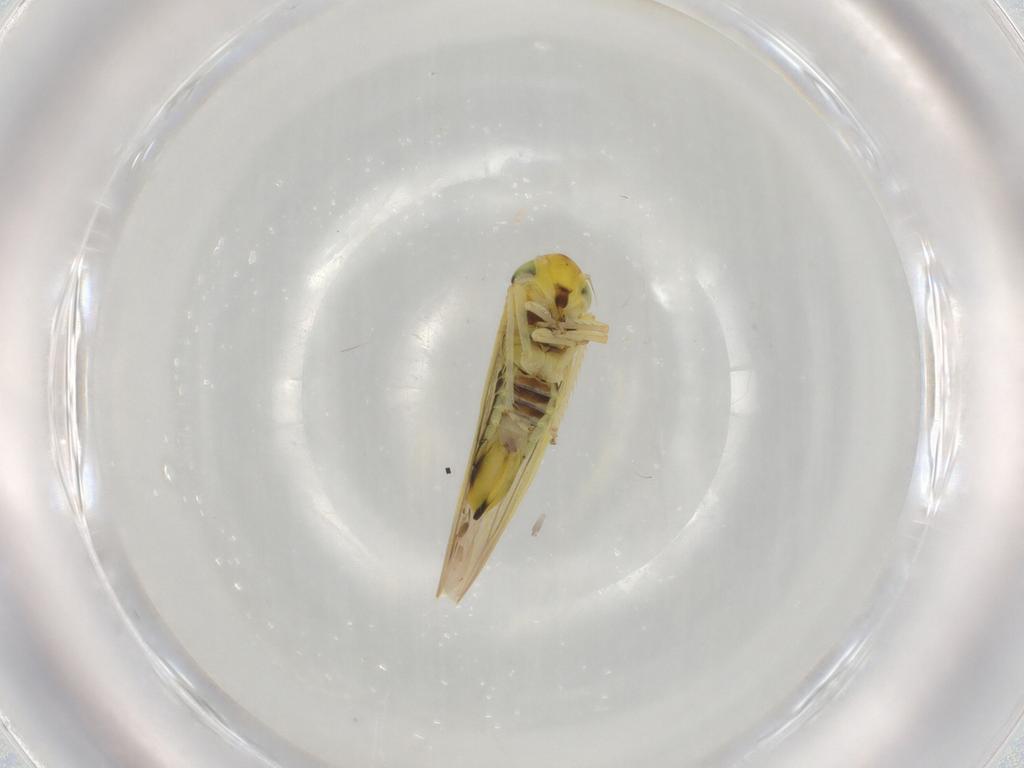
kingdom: Animalia
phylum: Arthropoda
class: Insecta
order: Hemiptera
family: Cicadellidae
